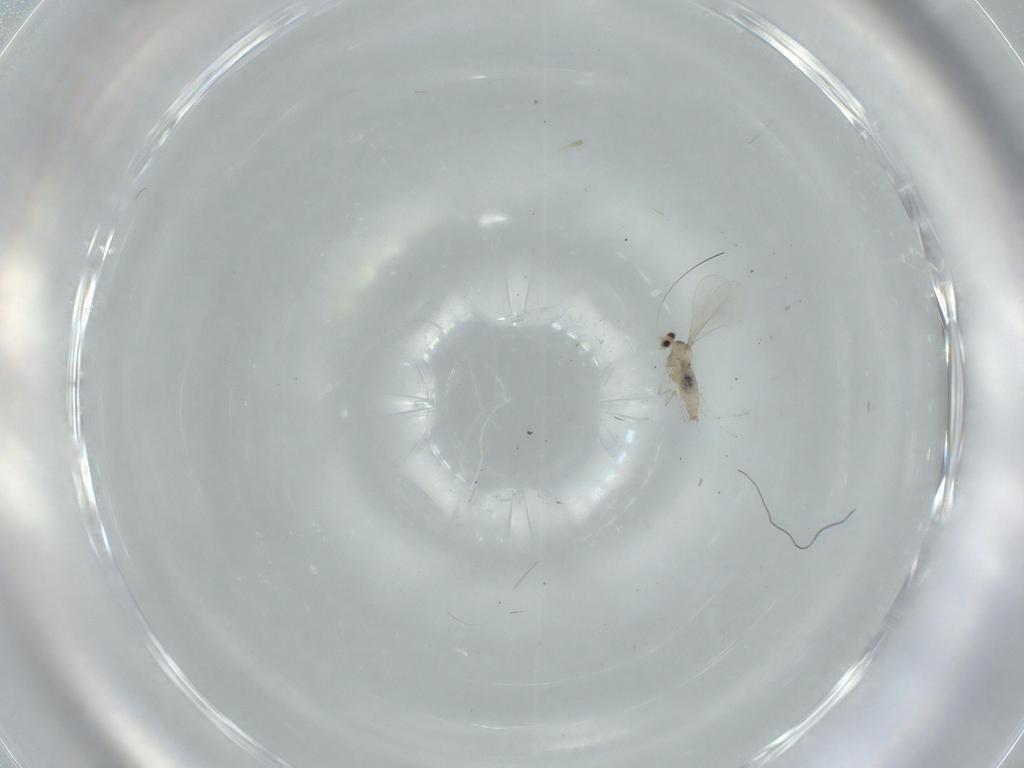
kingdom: Animalia
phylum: Arthropoda
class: Insecta
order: Diptera
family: Cecidomyiidae
